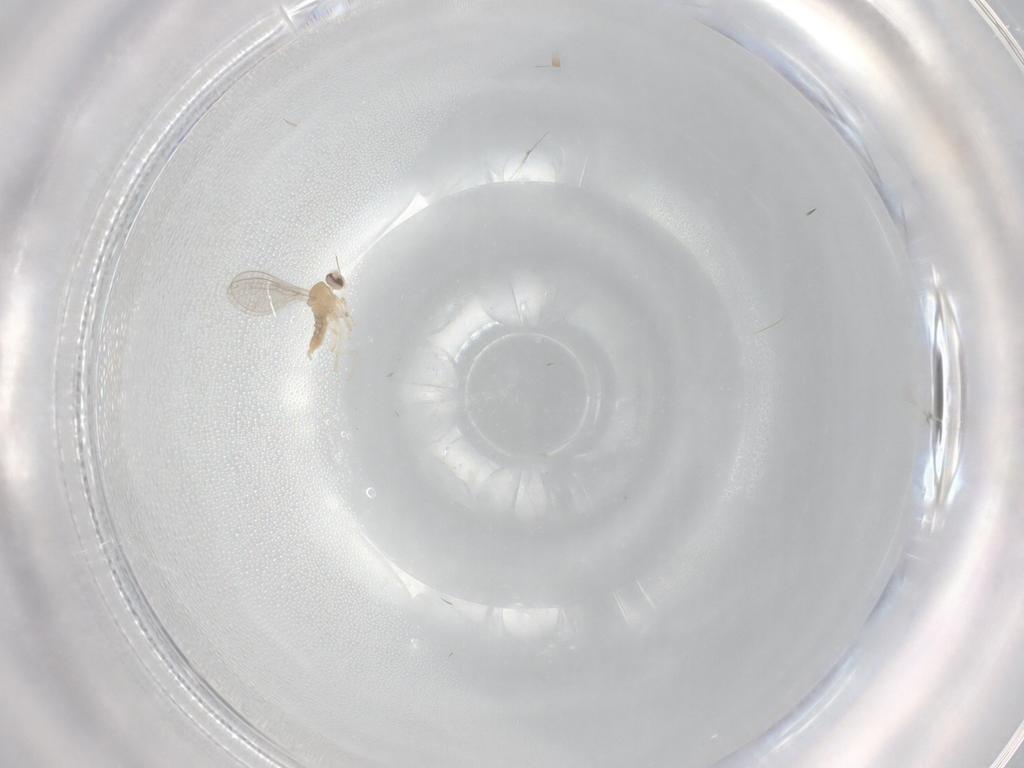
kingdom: Animalia
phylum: Arthropoda
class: Insecta
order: Diptera
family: Cecidomyiidae
